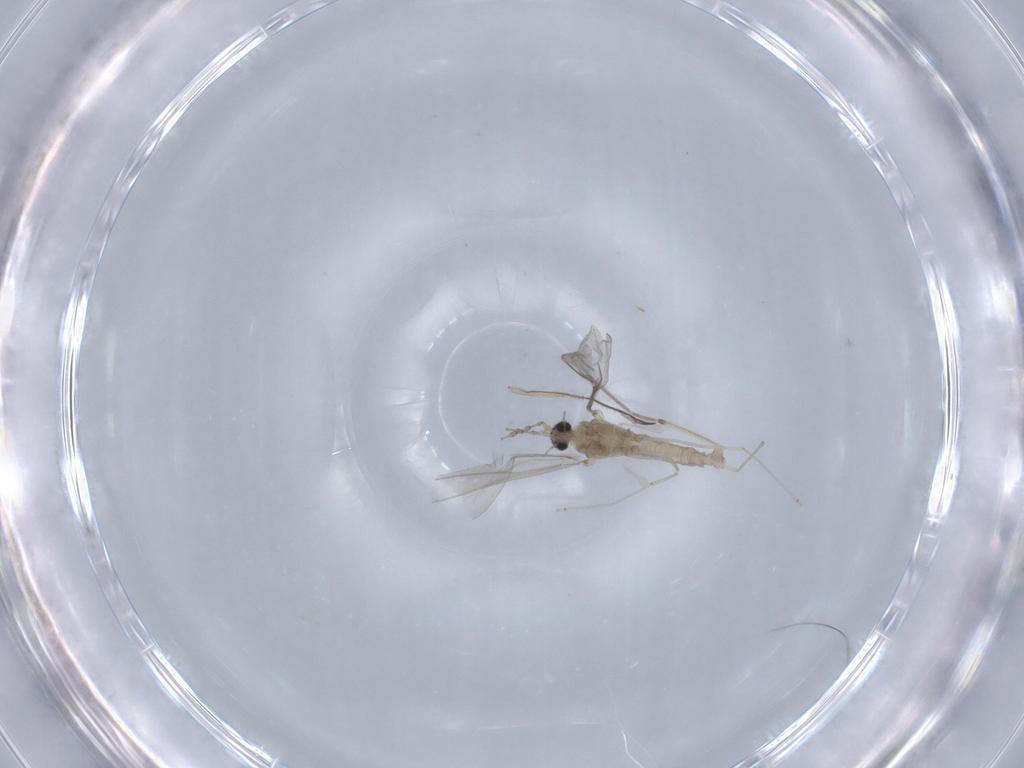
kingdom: Animalia
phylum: Arthropoda
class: Insecta
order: Diptera
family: Cecidomyiidae
